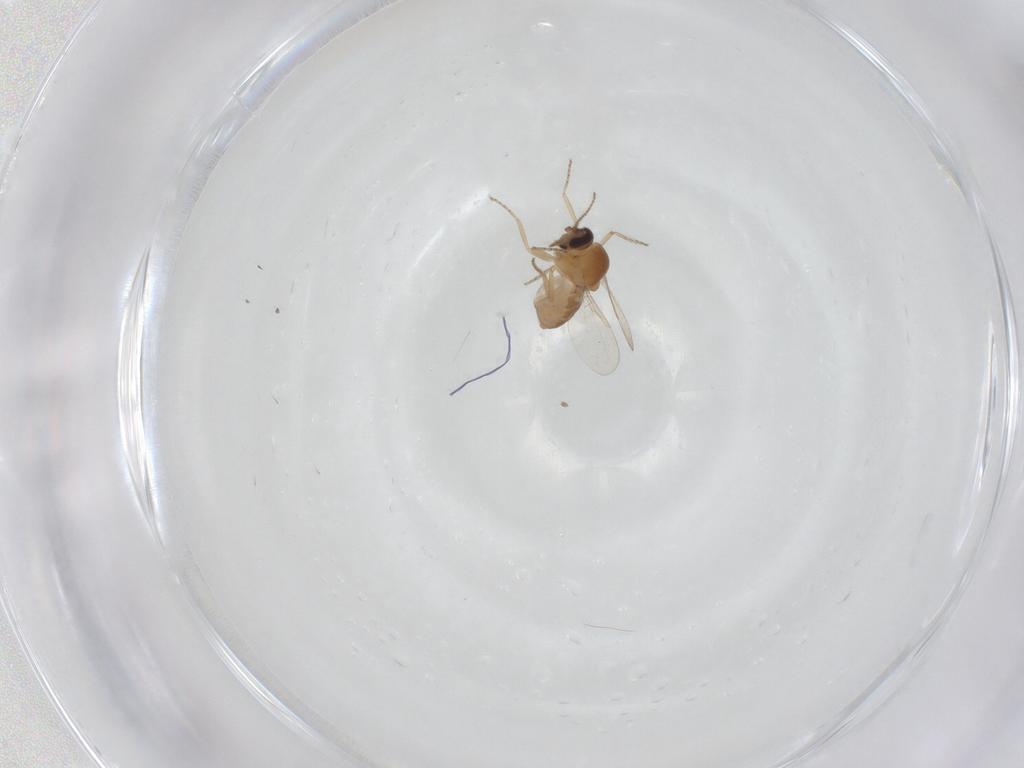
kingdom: Animalia
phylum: Arthropoda
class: Insecta
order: Diptera
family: Ceratopogonidae
